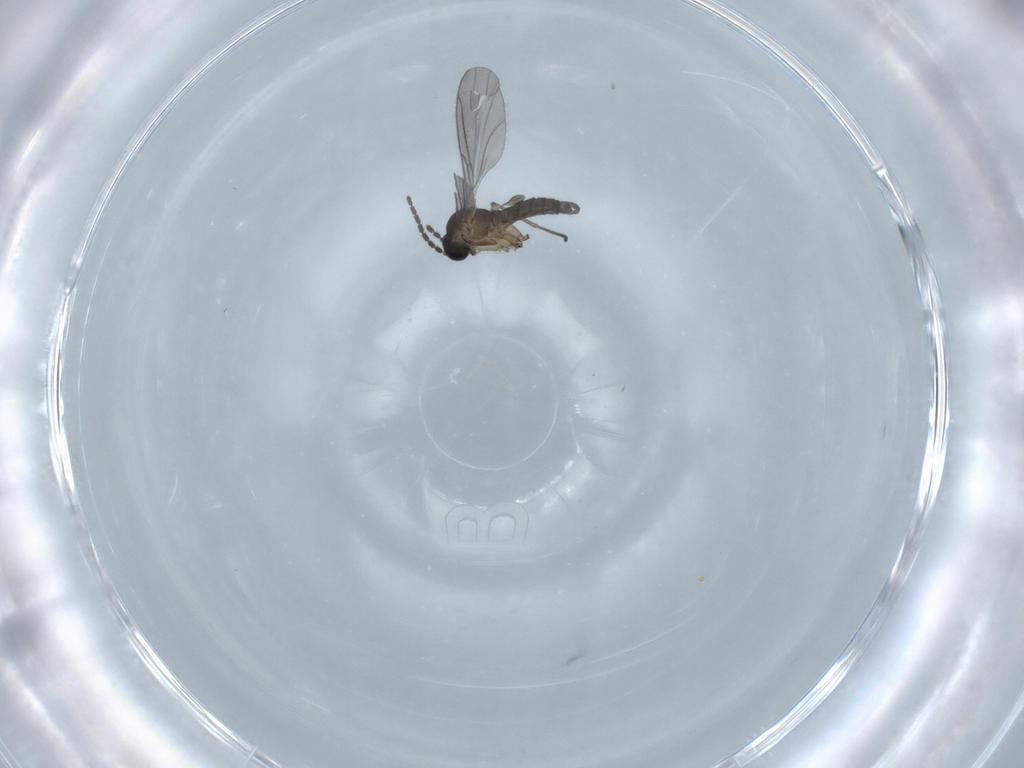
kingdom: Animalia
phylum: Arthropoda
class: Insecta
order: Diptera
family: Sciaridae
